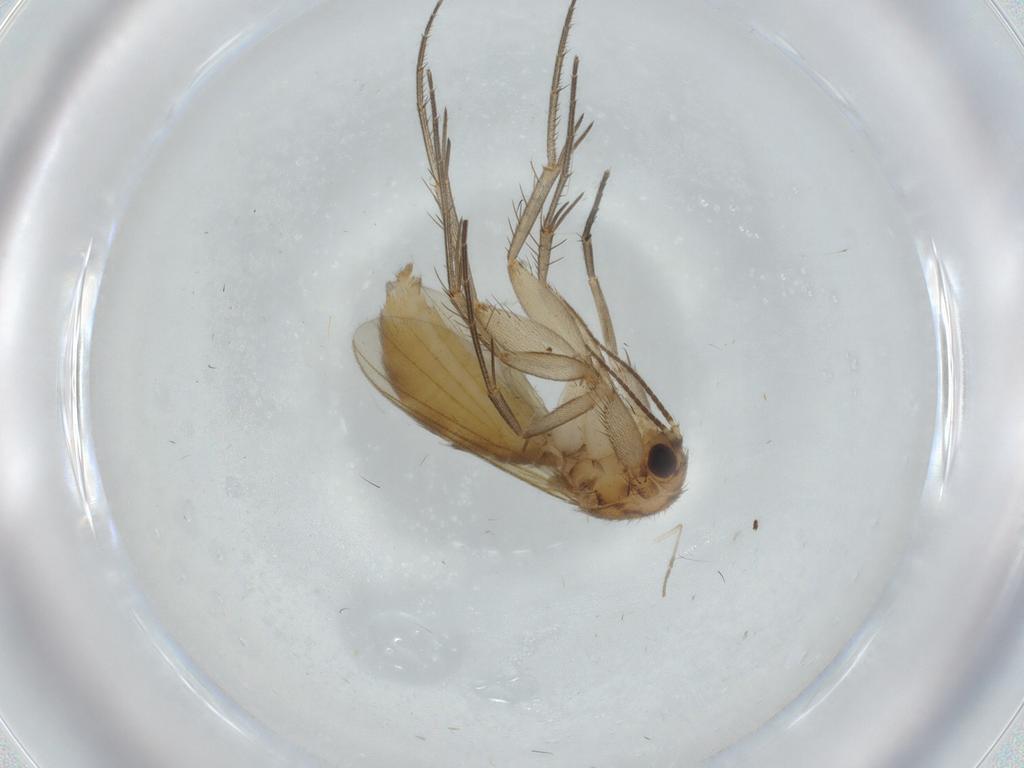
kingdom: Animalia
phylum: Arthropoda
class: Insecta
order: Diptera
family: Mycetophilidae
